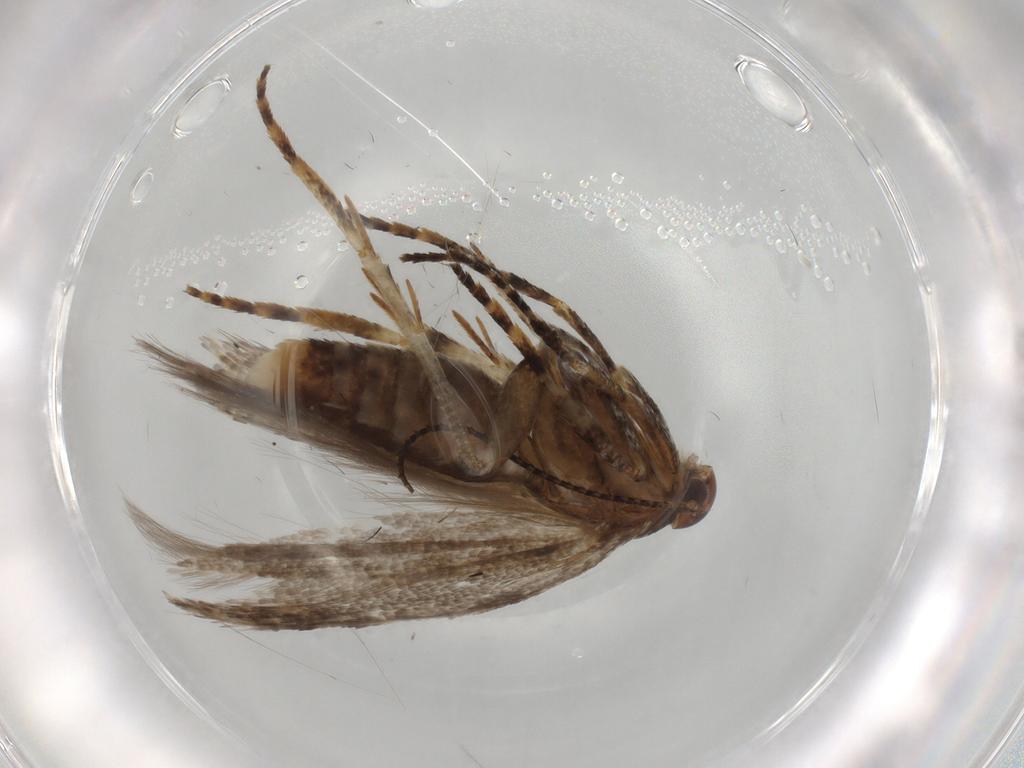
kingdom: Animalia
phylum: Arthropoda
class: Insecta
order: Lepidoptera
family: Gelechiidae
